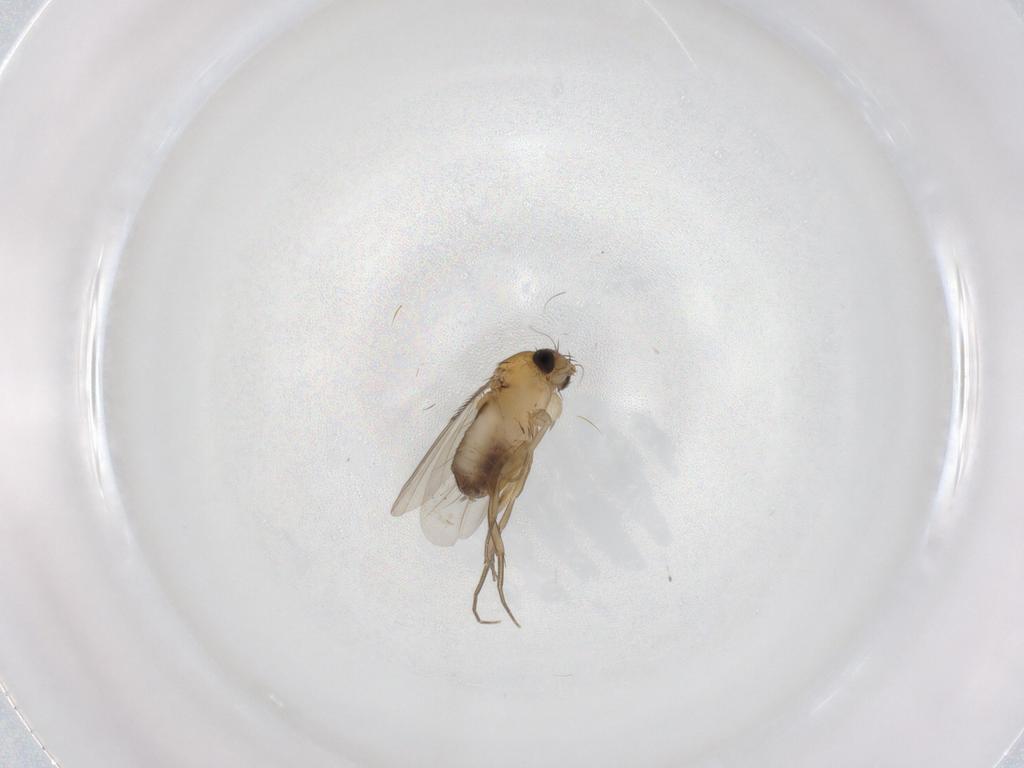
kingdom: Animalia
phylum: Arthropoda
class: Insecta
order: Diptera
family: Phoridae
